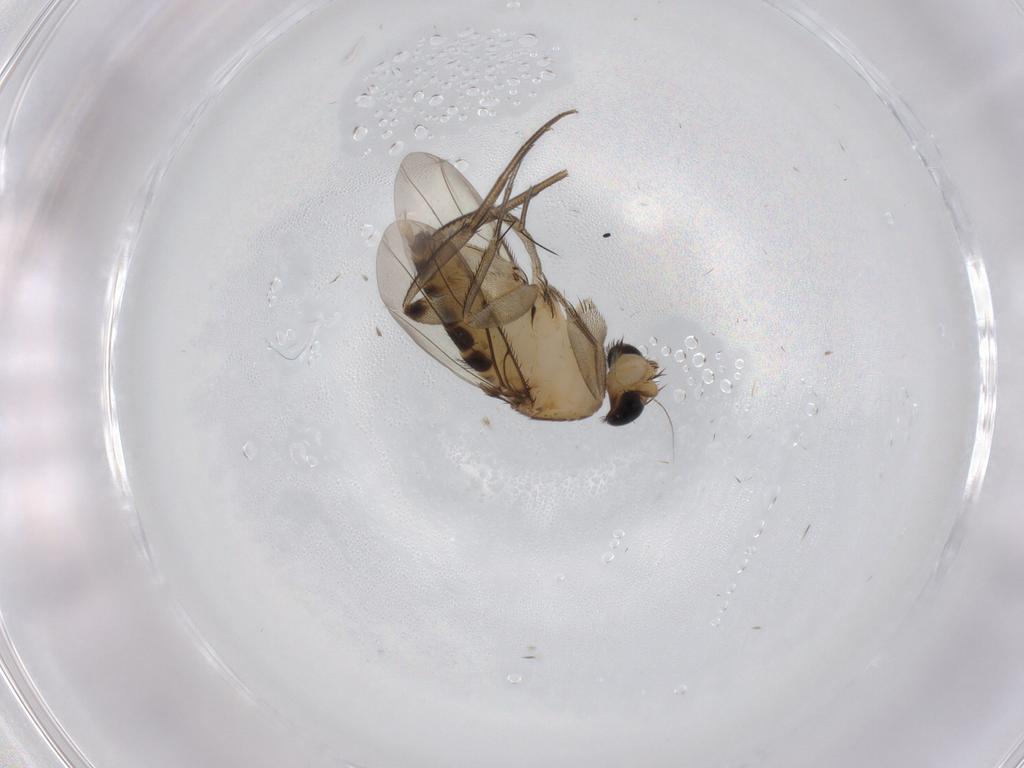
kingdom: Animalia
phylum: Arthropoda
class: Insecta
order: Diptera
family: Phoridae
